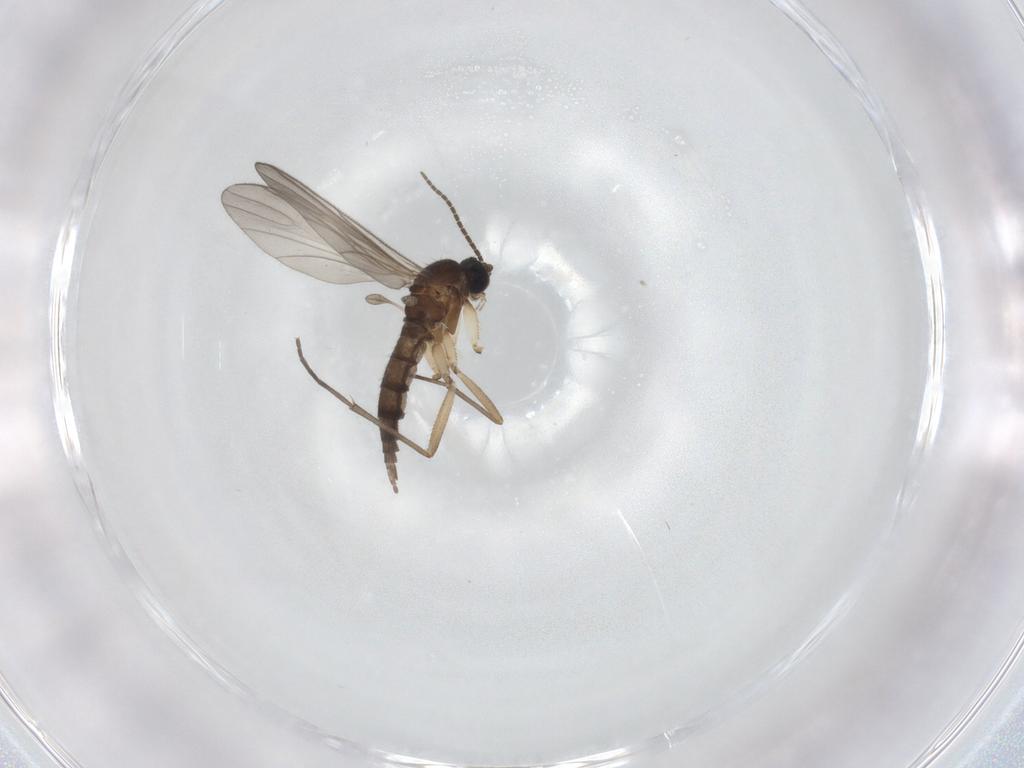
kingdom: Animalia
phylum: Arthropoda
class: Insecta
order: Diptera
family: Sciaridae
